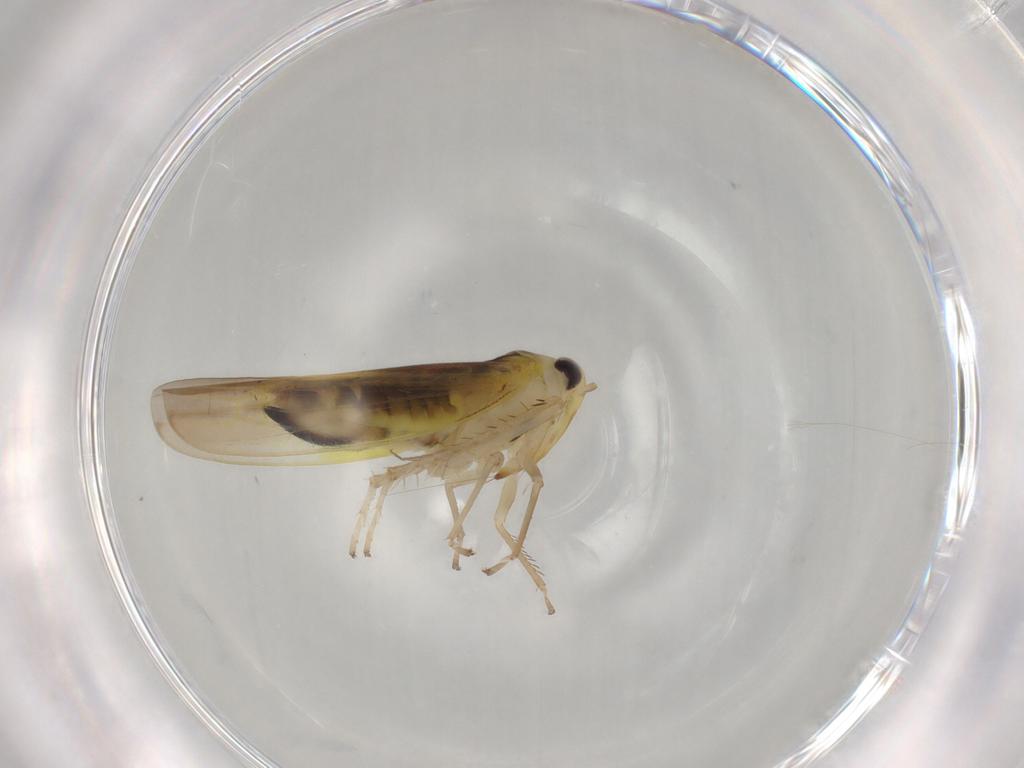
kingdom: Animalia
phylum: Arthropoda
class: Insecta
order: Hemiptera
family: Cicadellidae
